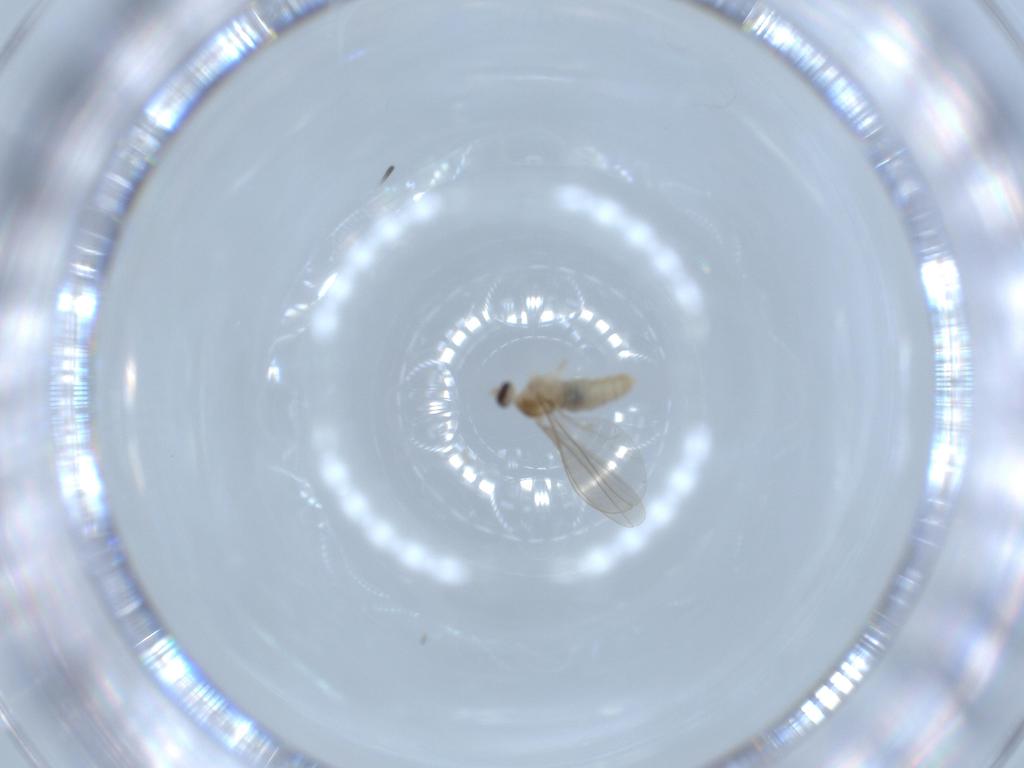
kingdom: Animalia
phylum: Arthropoda
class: Insecta
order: Diptera
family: Cecidomyiidae
